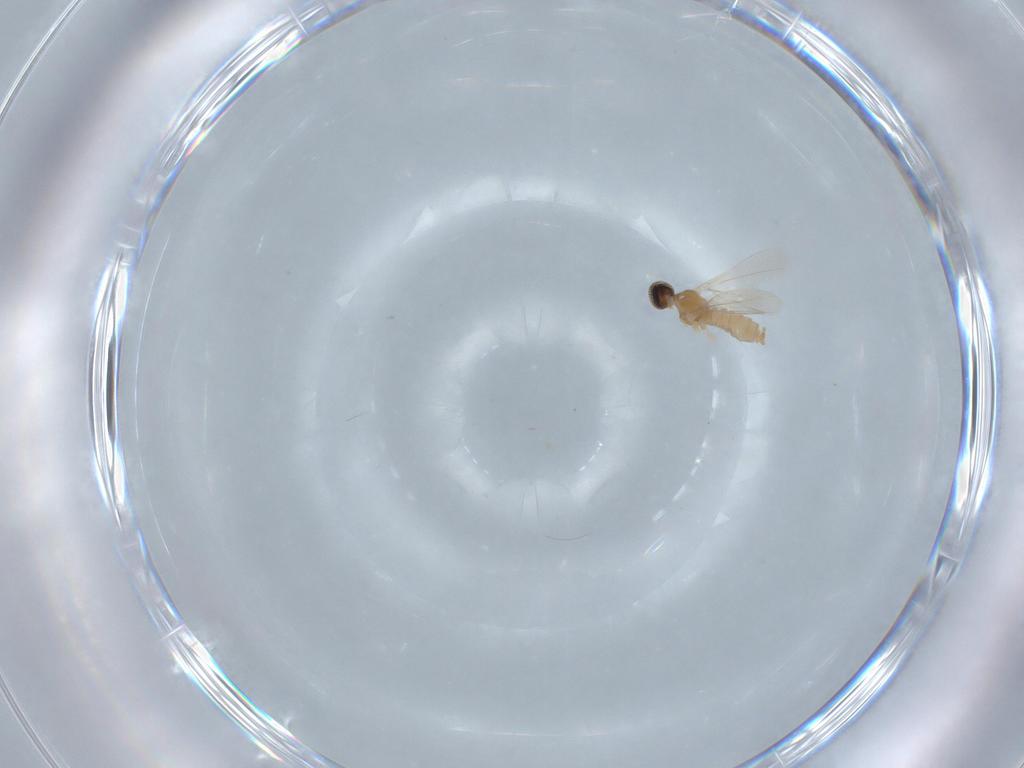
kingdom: Animalia
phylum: Arthropoda
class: Insecta
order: Diptera
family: Cecidomyiidae
